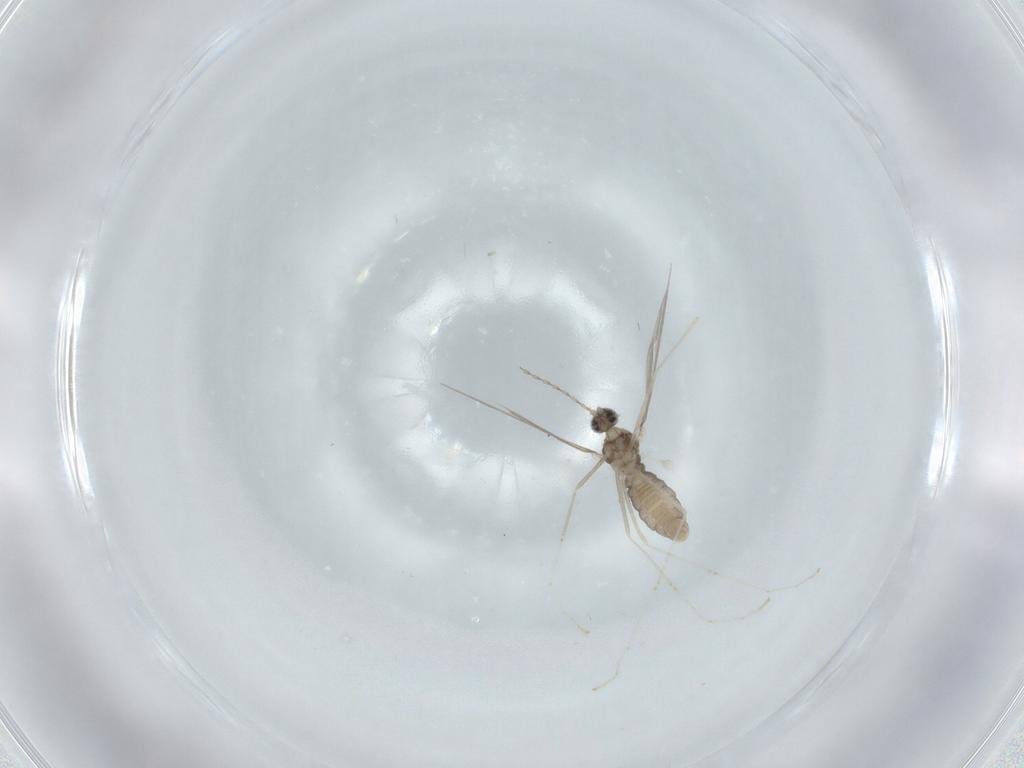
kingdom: Animalia
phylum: Arthropoda
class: Insecta
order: Diptera
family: Cecidomyiidae
